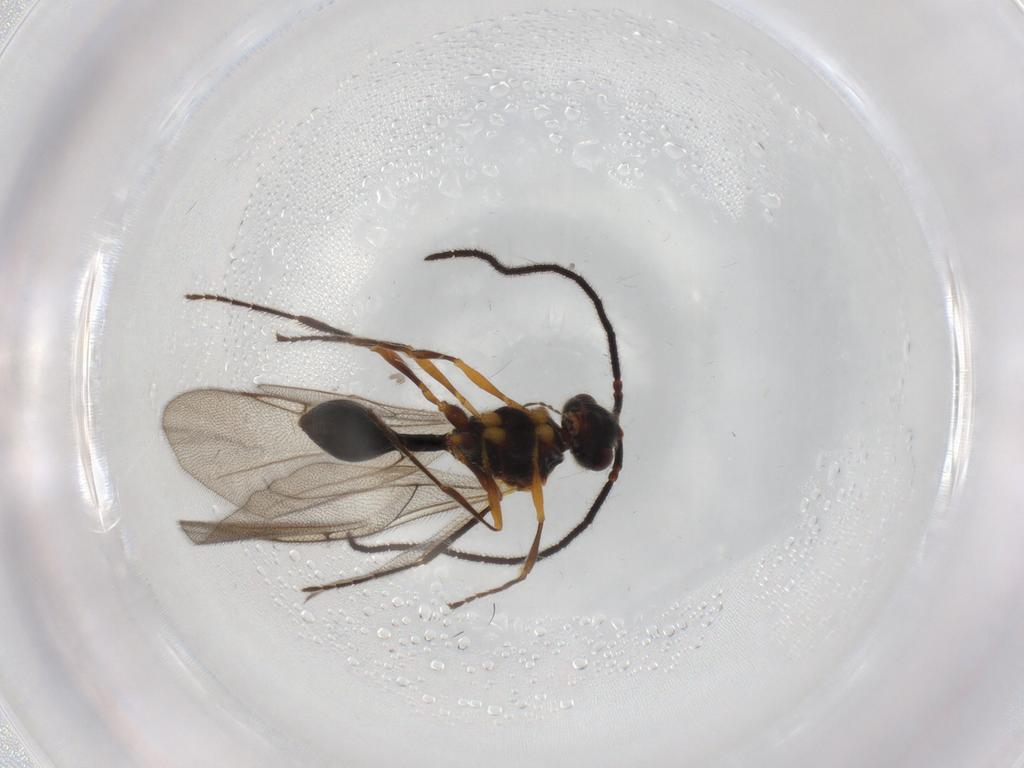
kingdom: Animalia
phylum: Arthropoda
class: Insecta
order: Hymenoptera
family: Diapriidae
